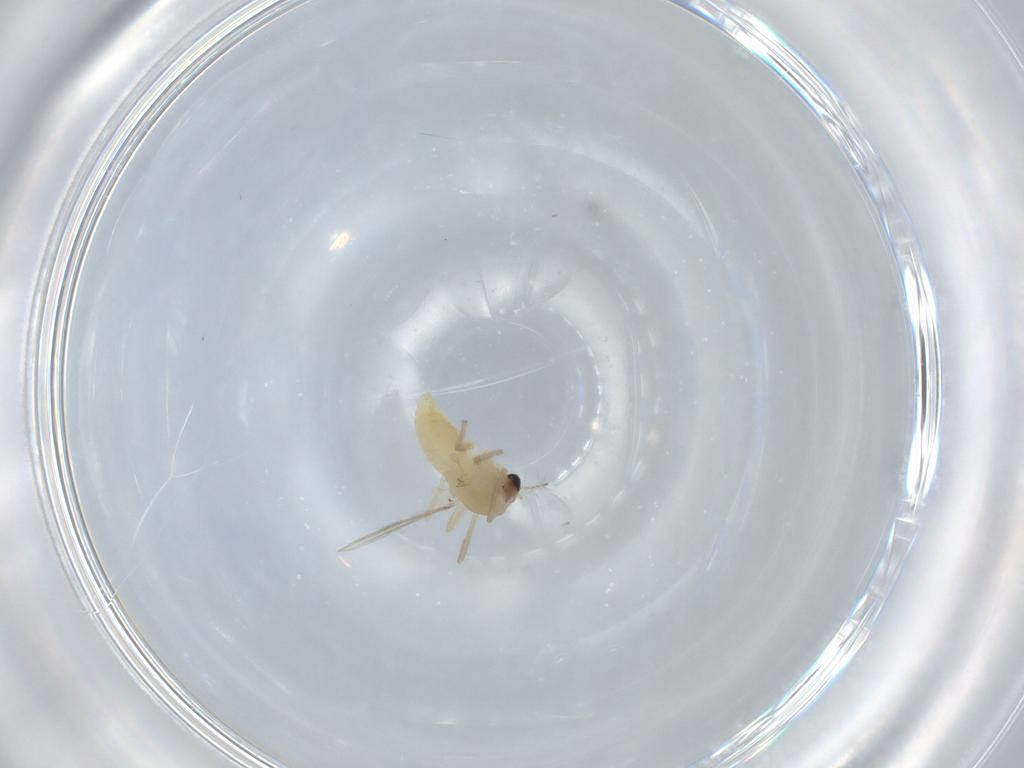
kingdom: Animalia
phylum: Arthropoda
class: Insecta
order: Diptera
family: Chironomidae
